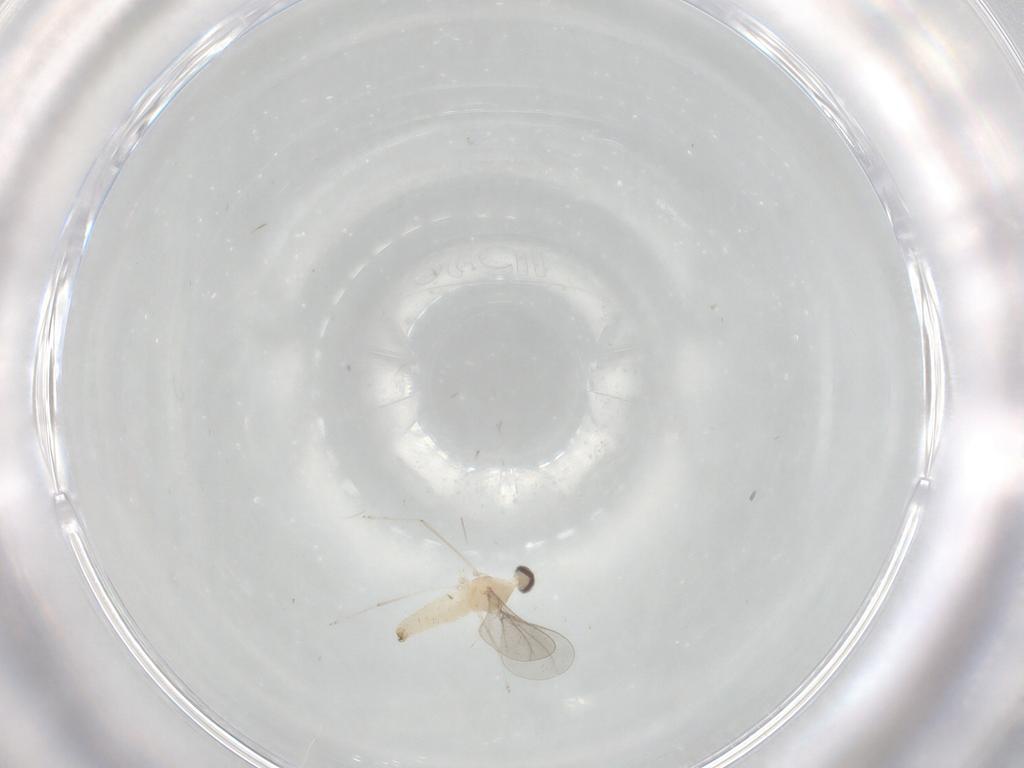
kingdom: Animalia
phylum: Arthropoda
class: Insecta
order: Diptera
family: Cecidomyiidae
